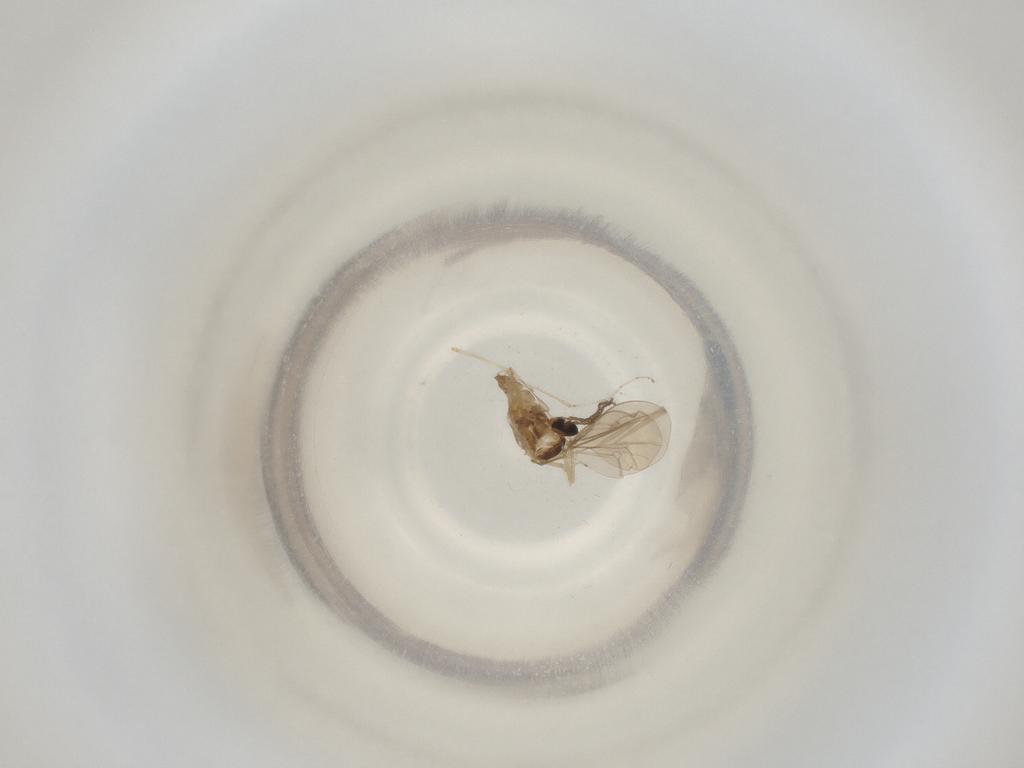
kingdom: Animalia
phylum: Arthropoda
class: Insecta
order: Diptera
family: Cecidomyiidae
